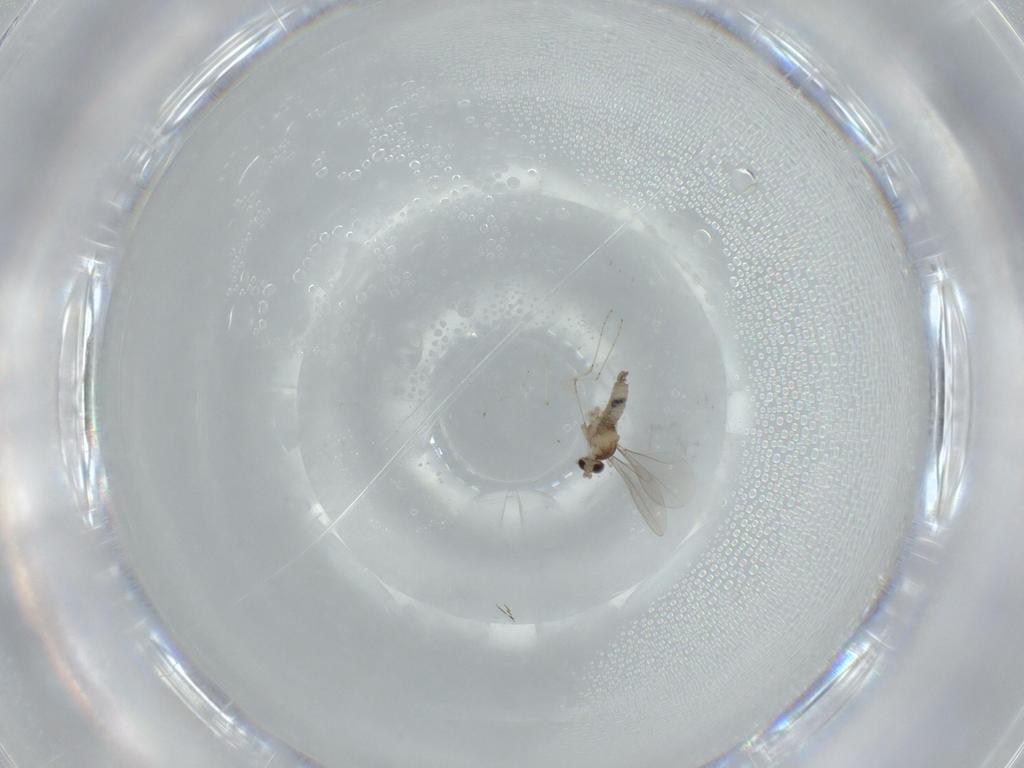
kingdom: Animalia
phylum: Arthropoda
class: Insecta
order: Diptera
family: Cecidomyiidae
